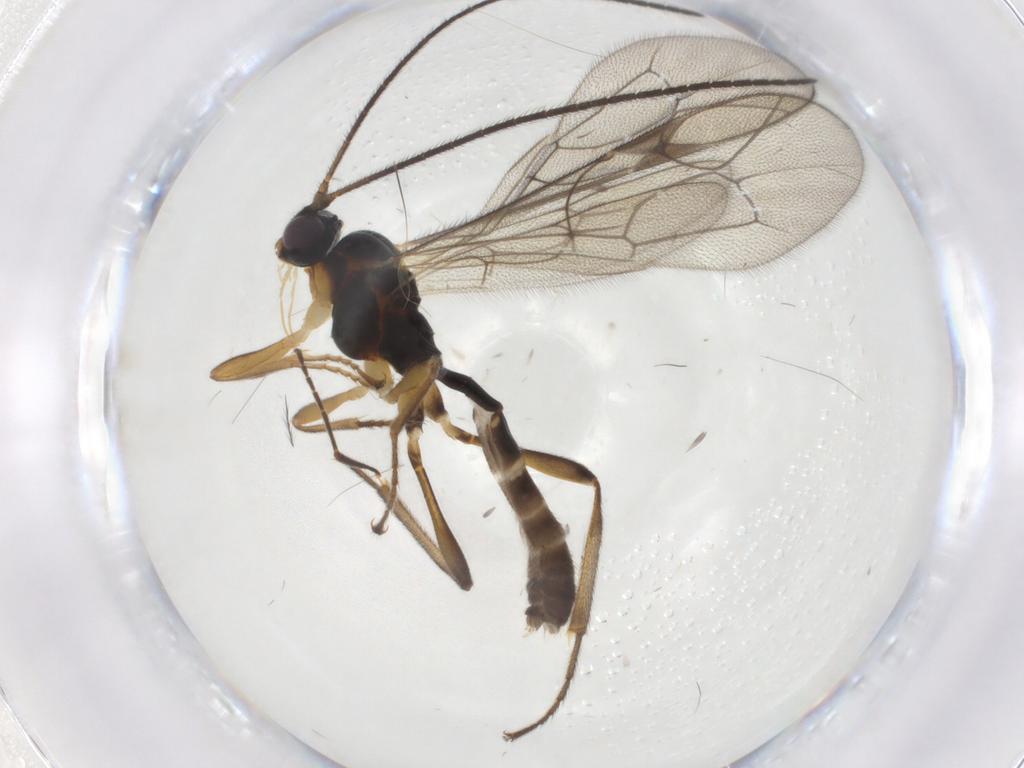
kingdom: Animalia
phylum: Arthropoda
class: Insecta
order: Hymenoptera
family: Ichneumonidae
